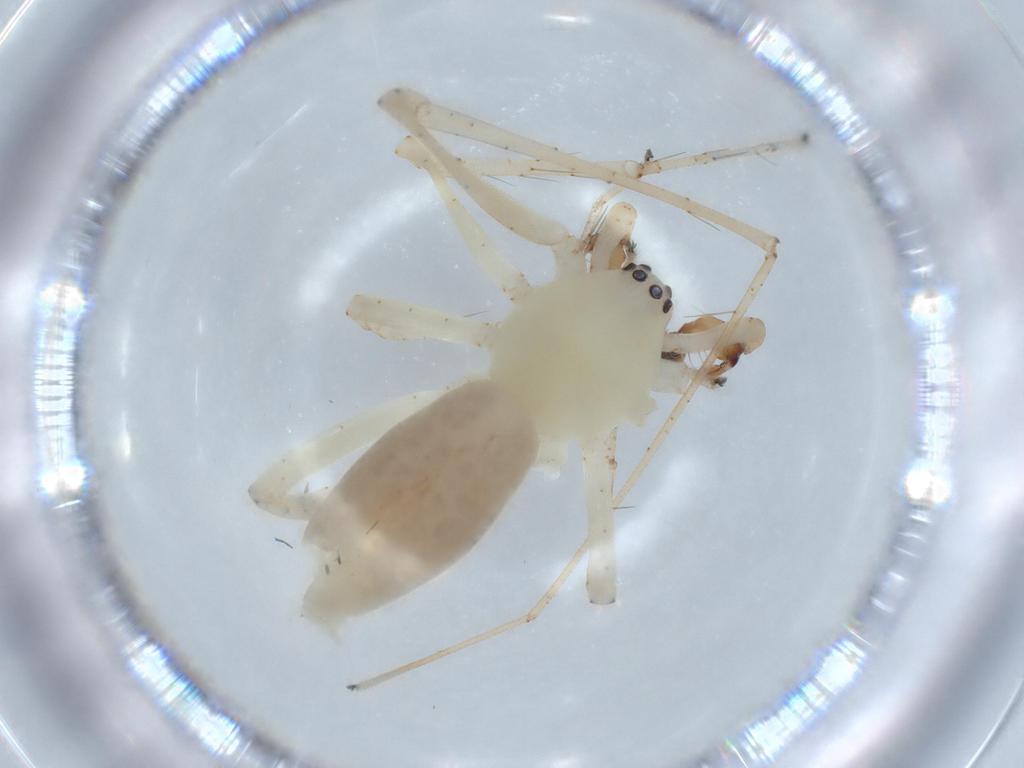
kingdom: Animalia
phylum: Arthropoda
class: Arachnida
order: Araneae
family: Anyphaenidae
